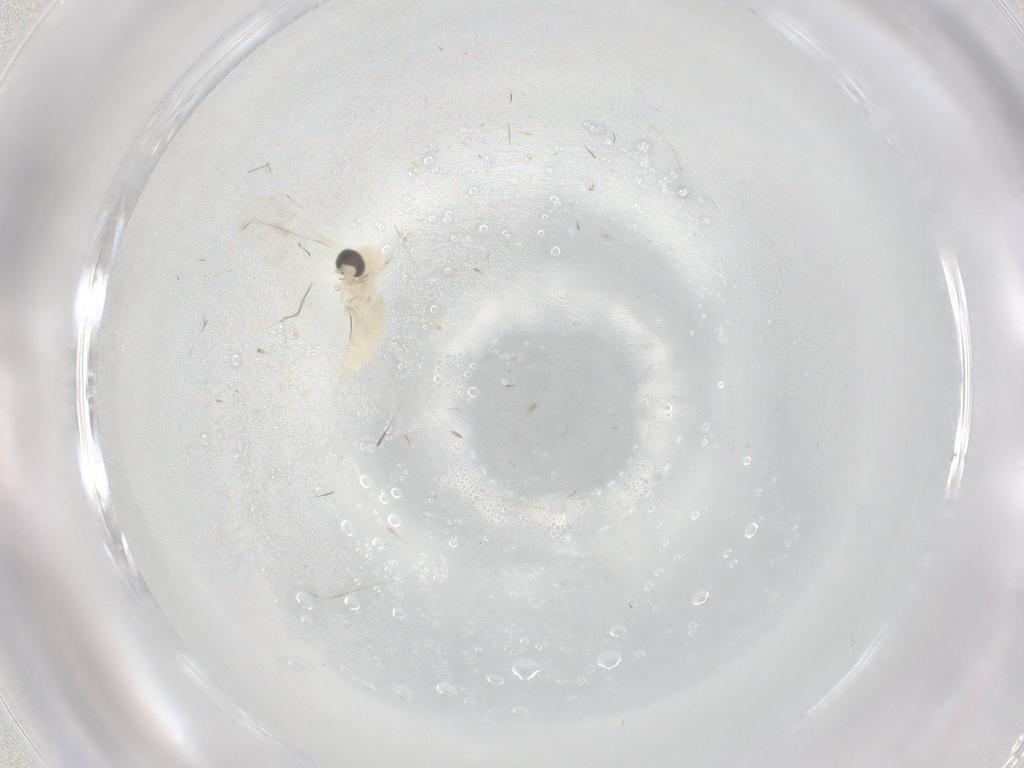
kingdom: Animalia
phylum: Arthropoda
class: Insecta
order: Diptera
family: Cecidomyiidae
